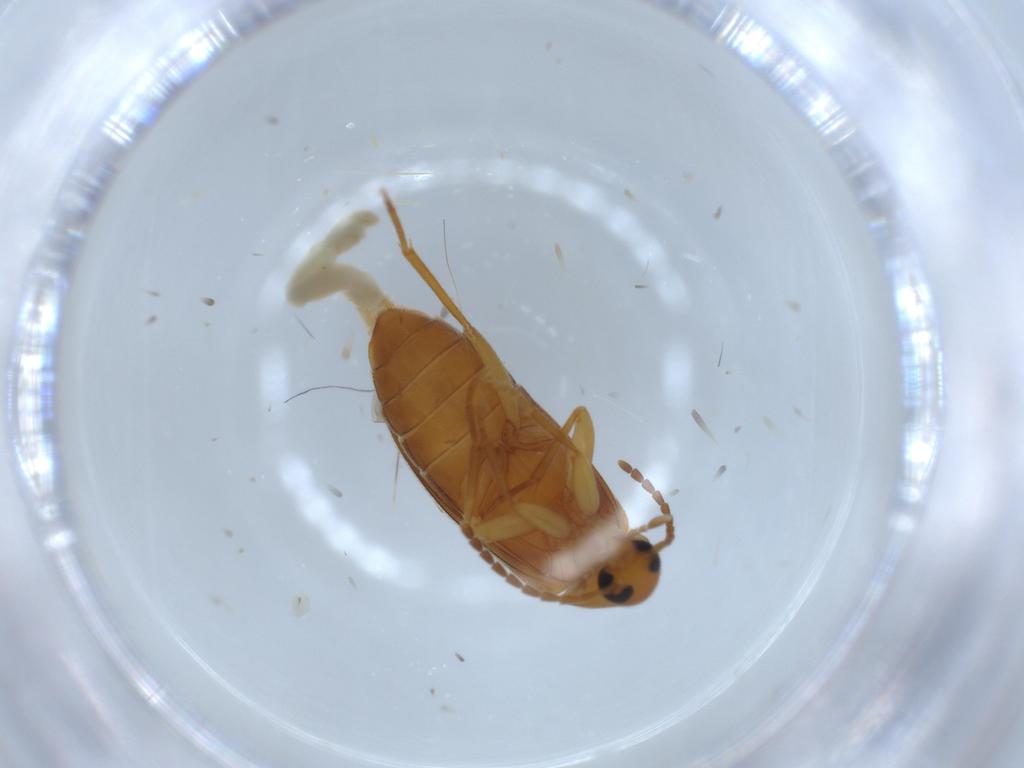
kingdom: Animalia
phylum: Arthropoda
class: Insecta
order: Coleoptera
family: Scraptiidae
